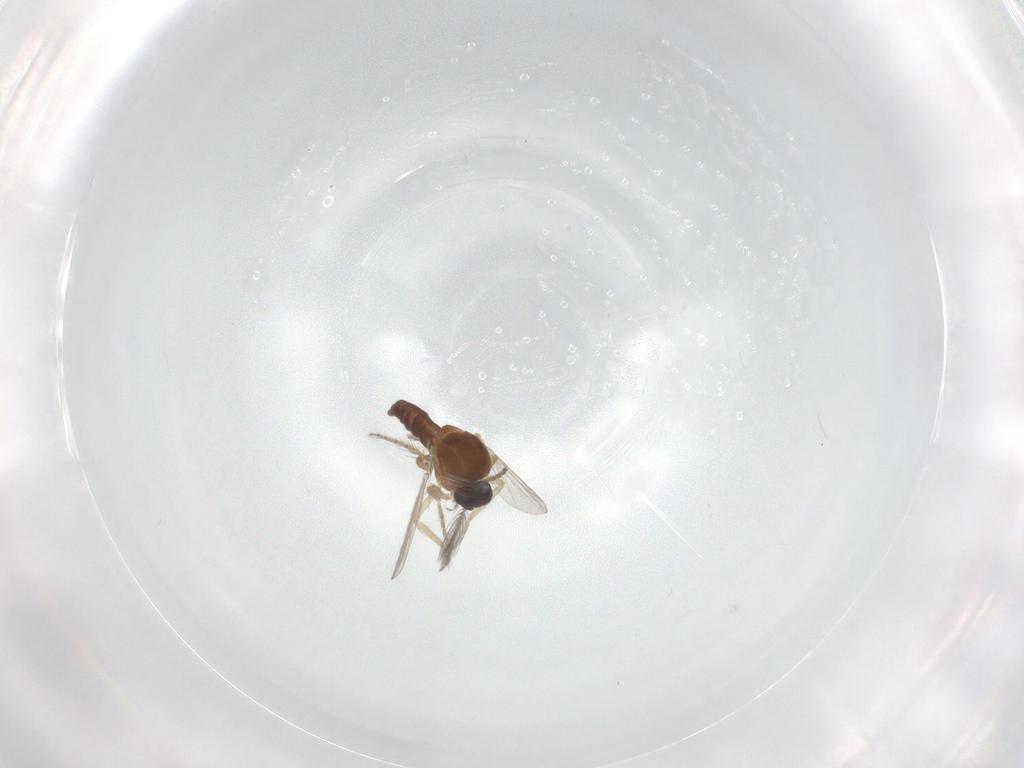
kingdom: Animalia
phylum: Arthropoda
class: Insecta
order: Diptera
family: Ceratopogonidae
